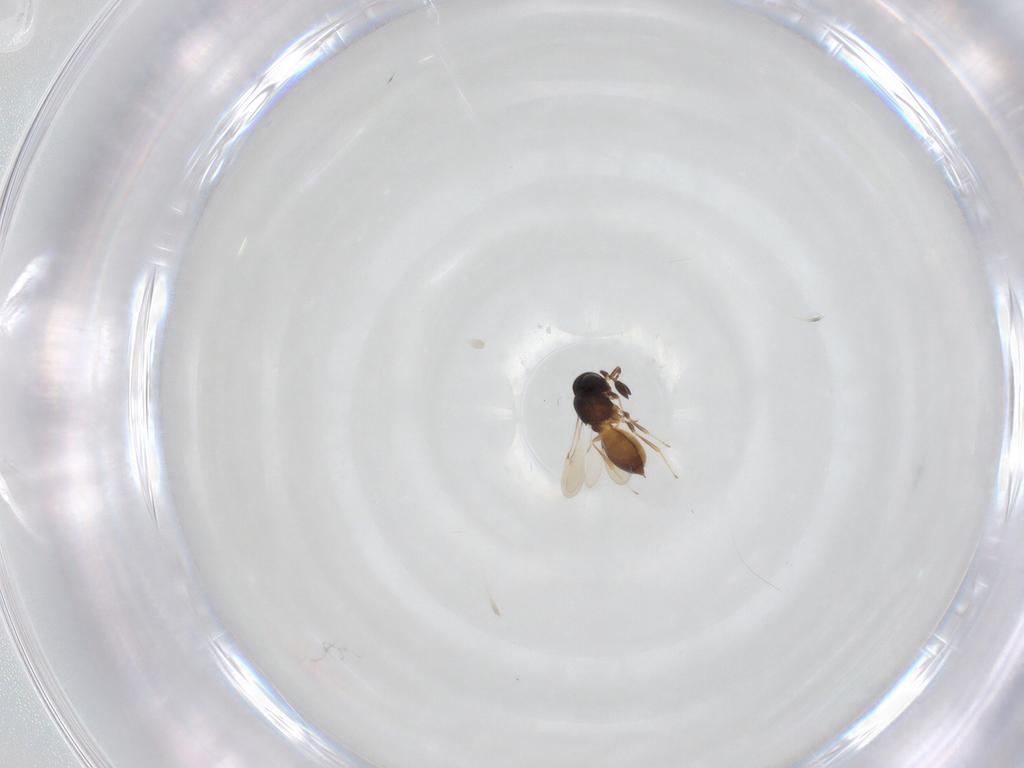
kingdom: Animalia
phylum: Arthropoda
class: Insecta
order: Hymenoptera
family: Scelionidae
